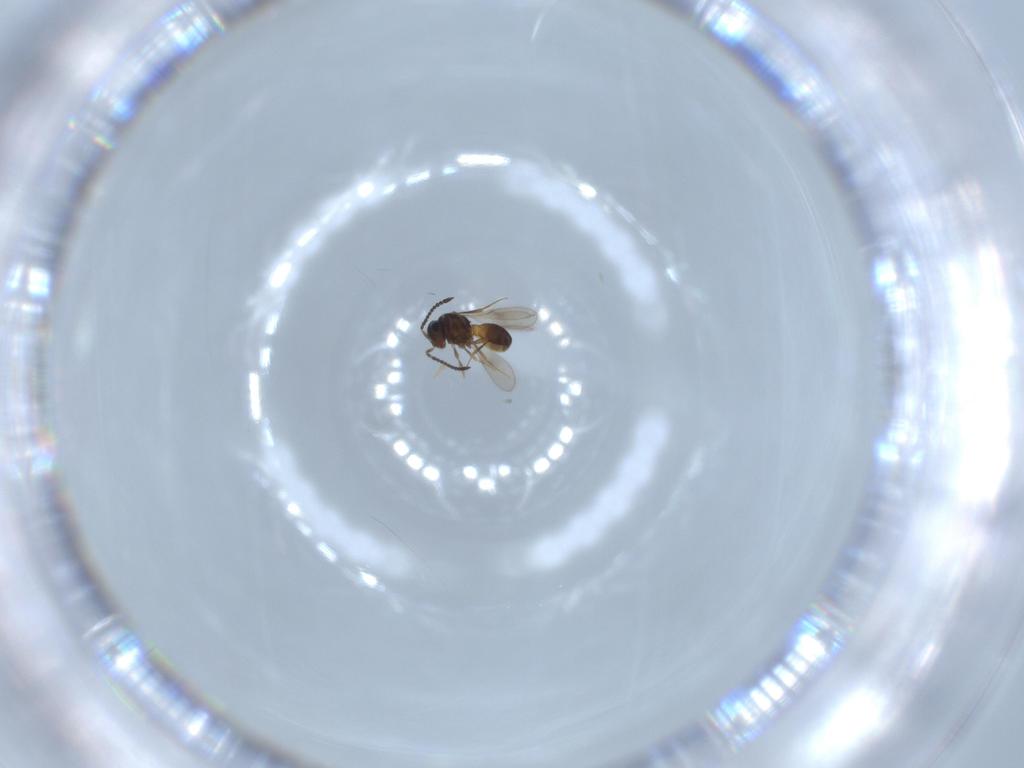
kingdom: Animalia
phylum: Arthropoda
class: Insecta
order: Hymenoptera
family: Scelionidae
